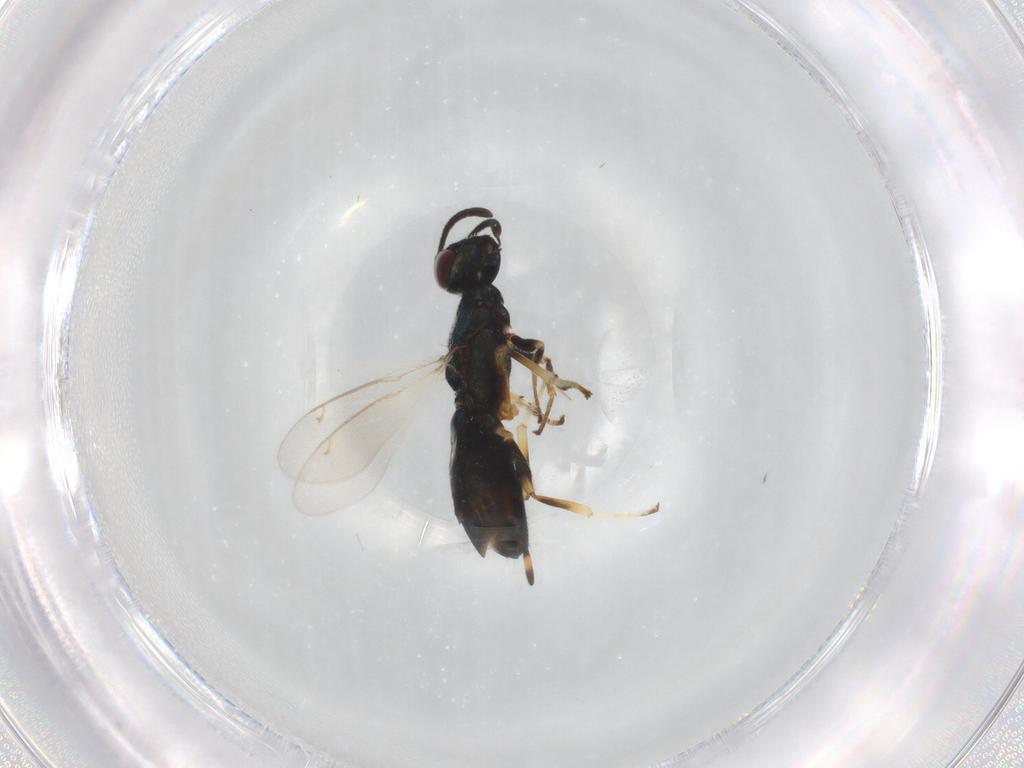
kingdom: Animalia
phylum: Arthropoda
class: Insecta
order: Hymenoptera
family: Eupelmidae
